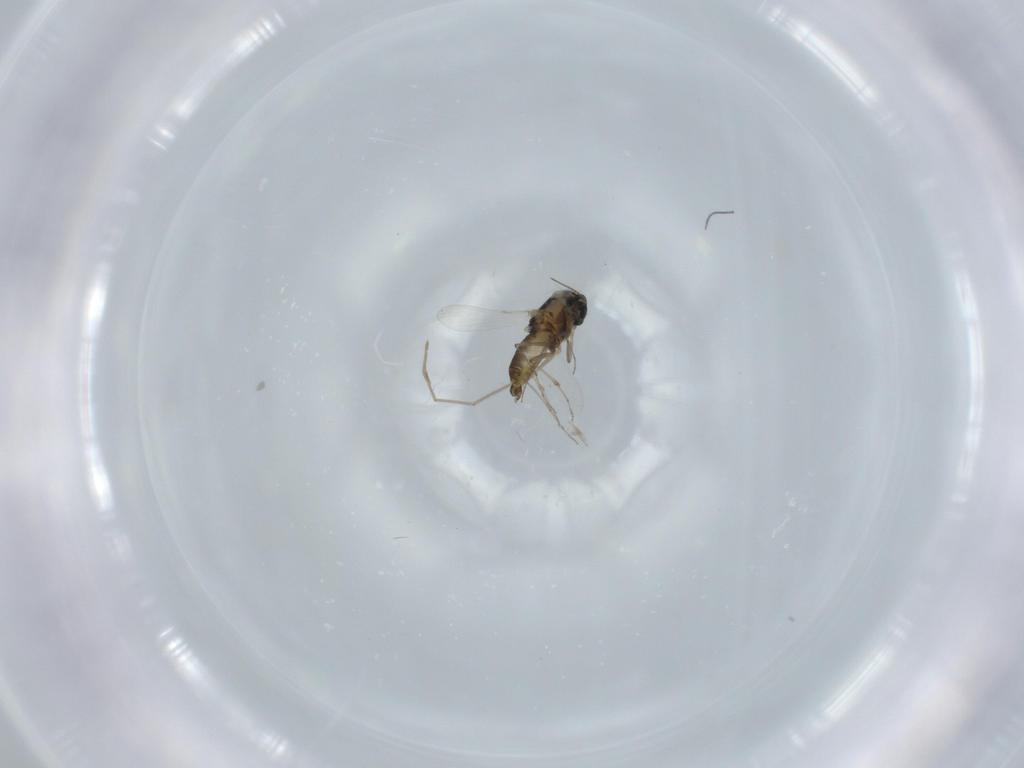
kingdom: Animalia
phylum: Arthropoda
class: Insecta
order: Diptera
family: Chironomidae
